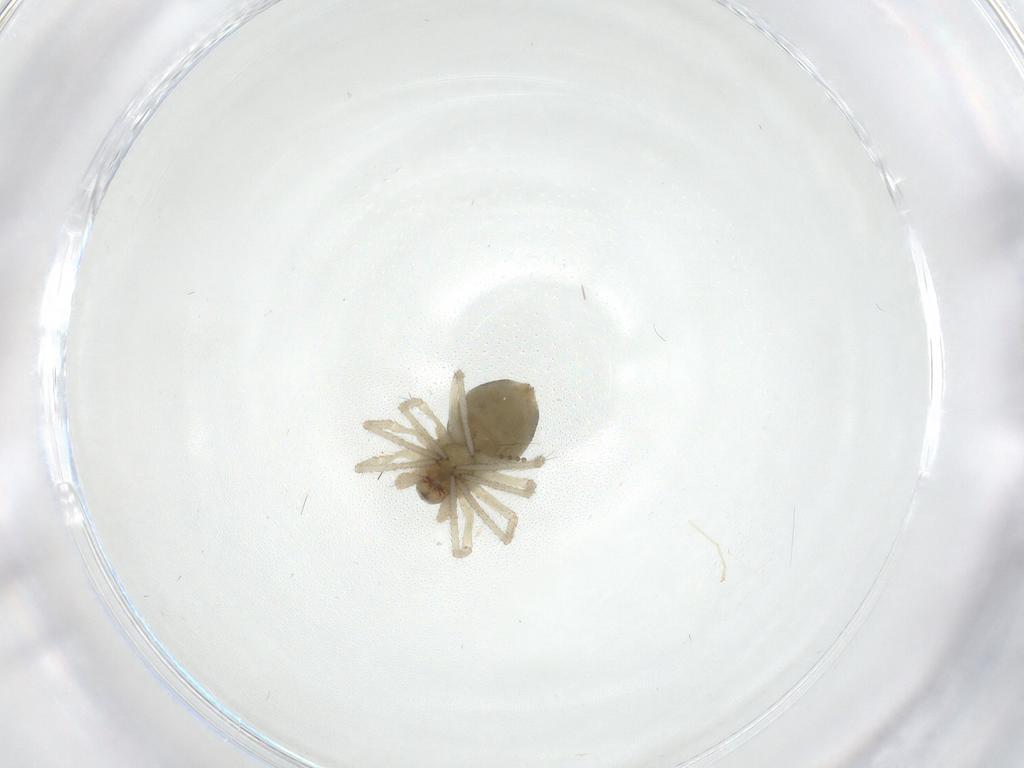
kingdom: Animalia
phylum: Arthropoda
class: Arachnida
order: Araneae
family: Linyphiidae
